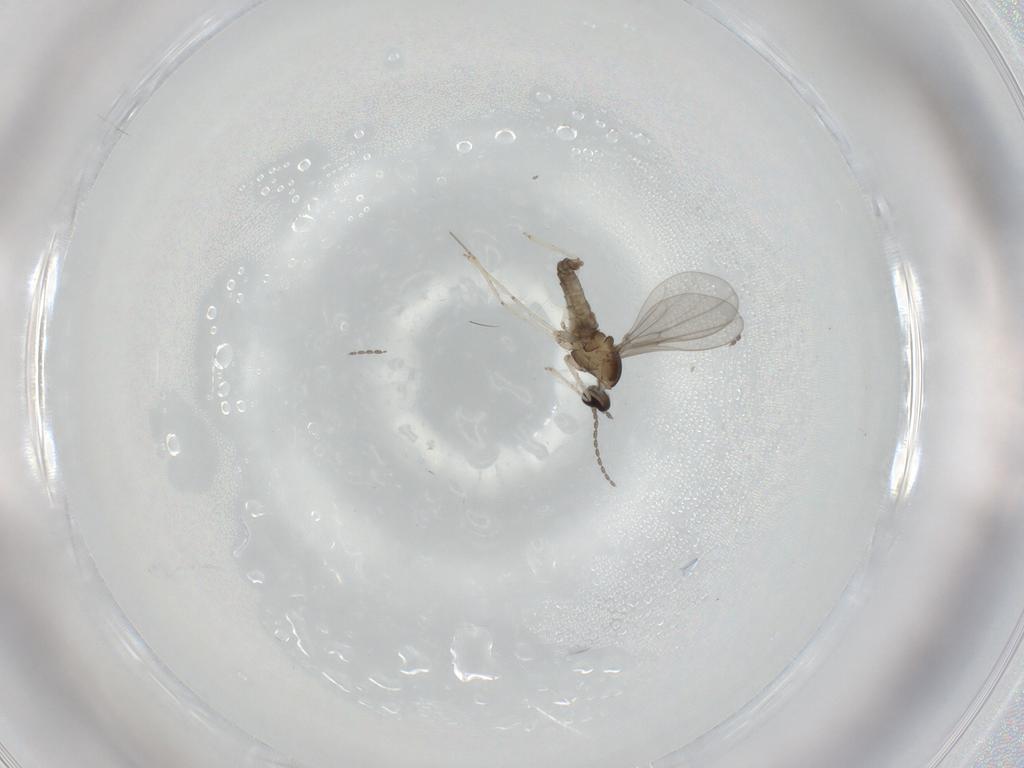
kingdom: Animalia
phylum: Arthropoda
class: Insecta
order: Diptera
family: Cecidomyiidae
